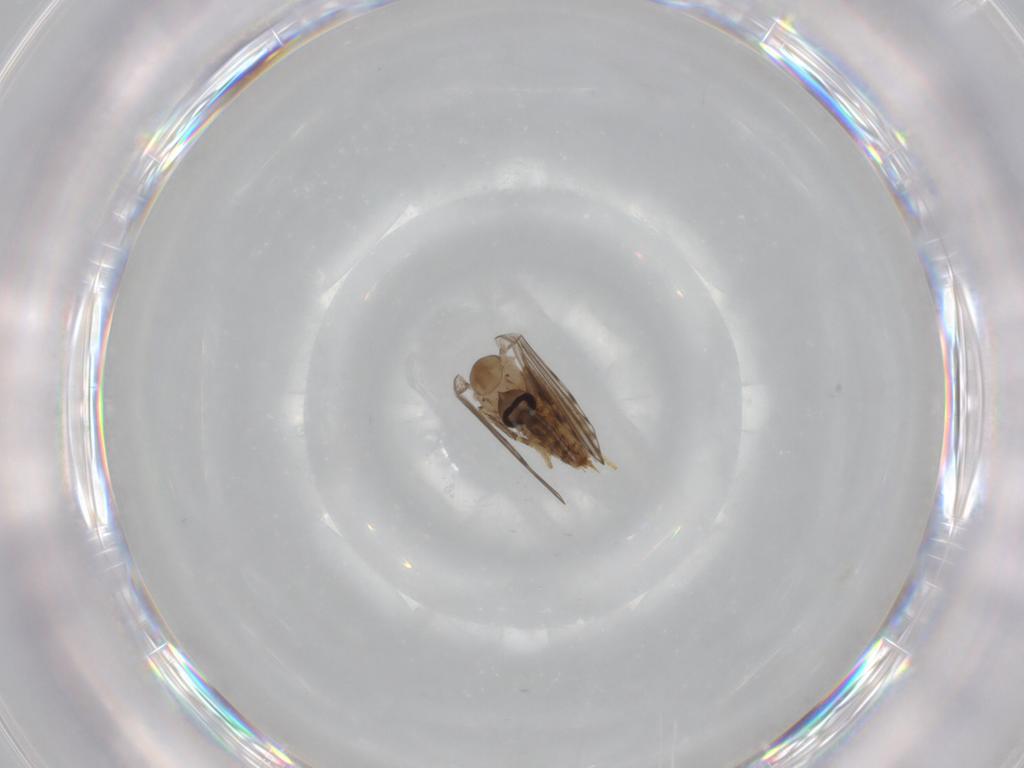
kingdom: Animalia
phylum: Arthropoda
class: Insecta
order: Diptera
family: Psychodidae
